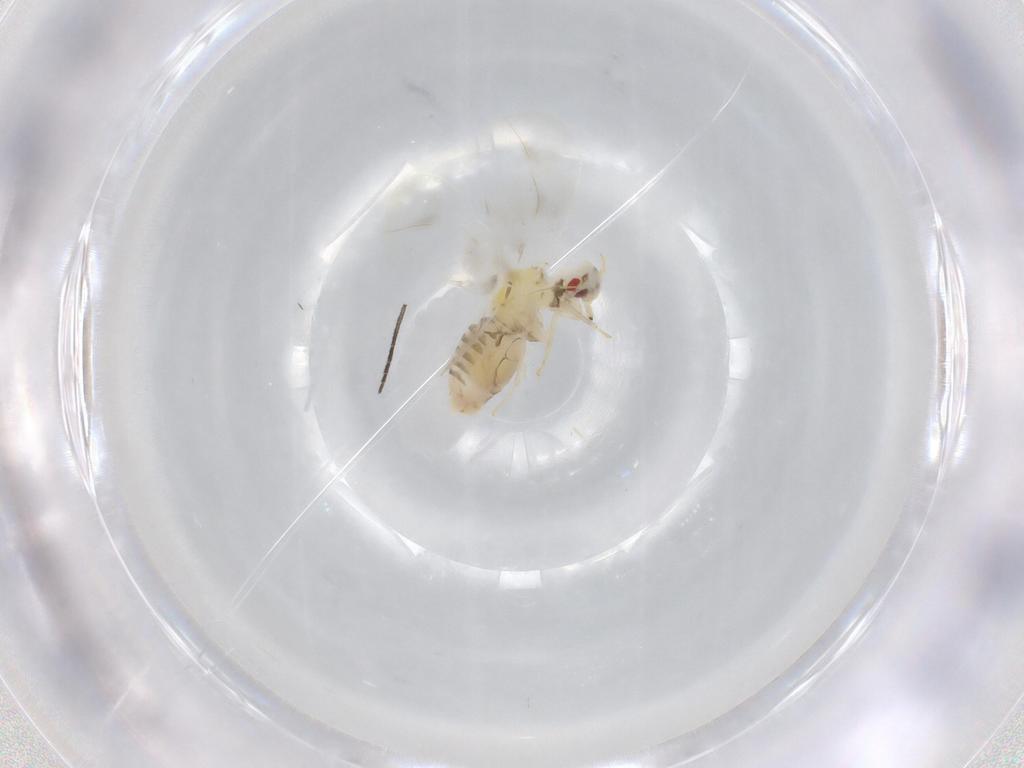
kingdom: Animalia
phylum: Arthropoda
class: Insecta
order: Hemiptera
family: Aleyrodidae
